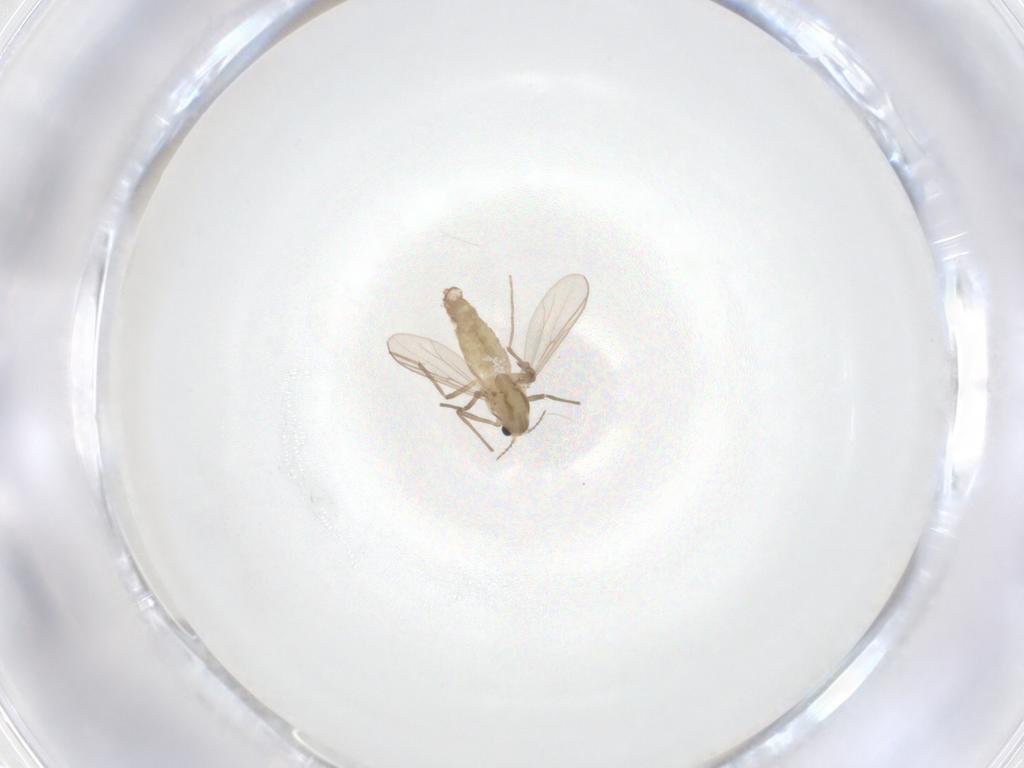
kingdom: Animalia
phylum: Arthropoda
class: Insecta
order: Diptera
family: Chironomidae
